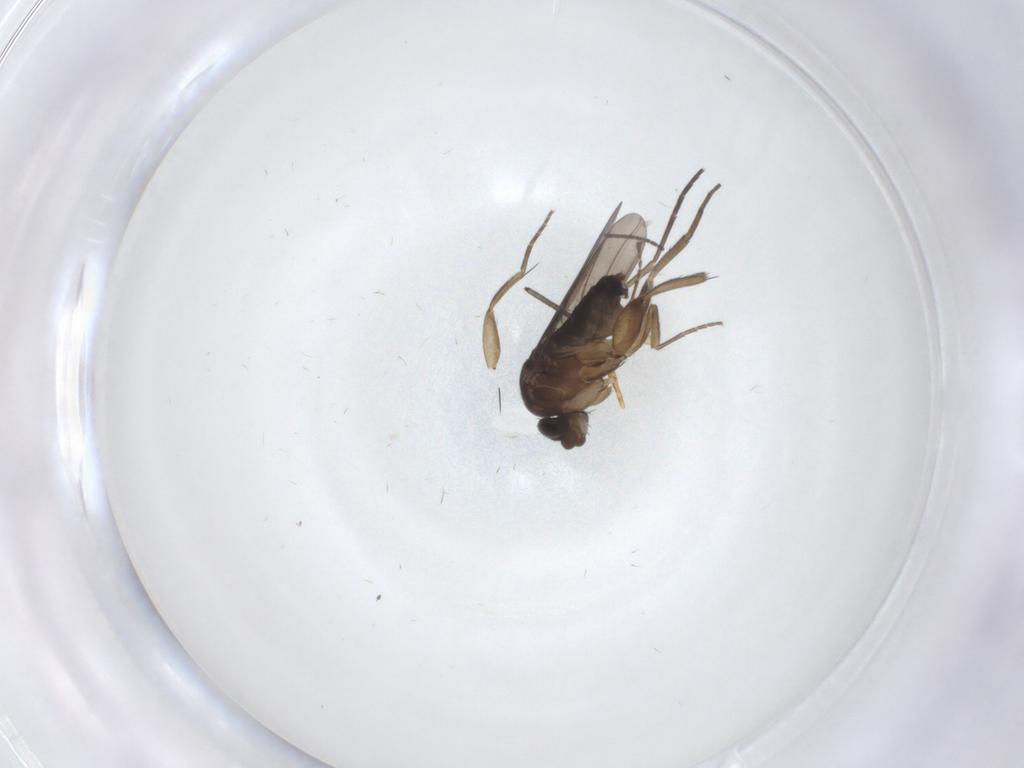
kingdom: Animalia
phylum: Arthropoda
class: Insecta
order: Diptera
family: Phoridae
